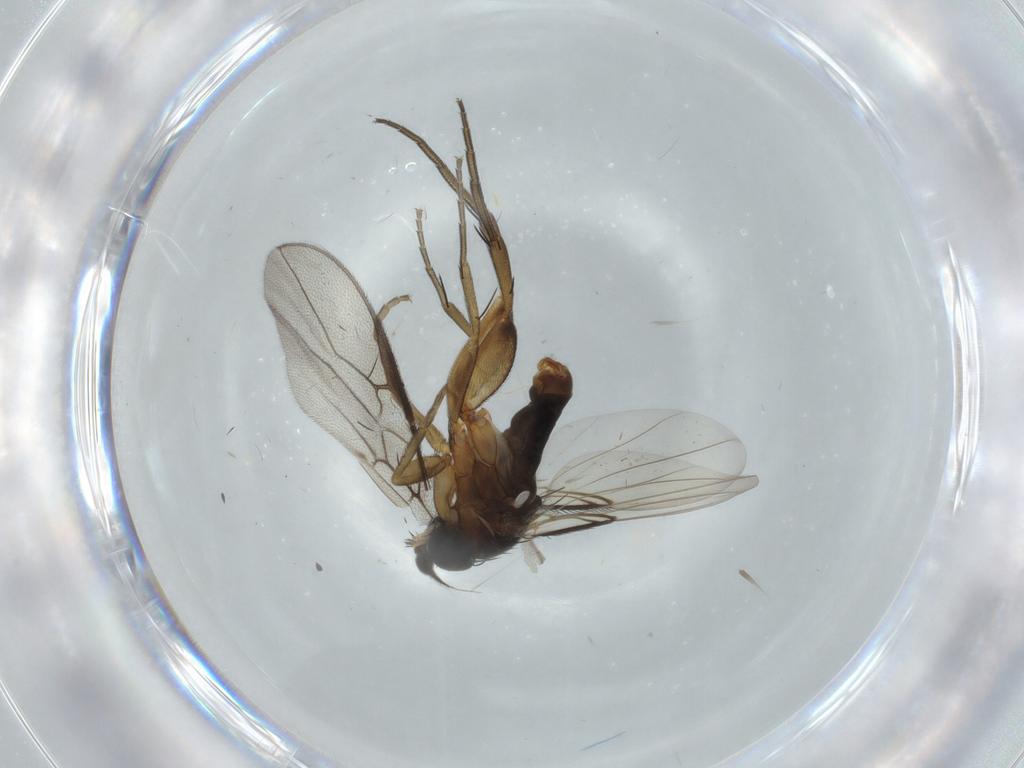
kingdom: Animalia
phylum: Arthropoda
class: Insecta
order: Diptera
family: Phoridae
